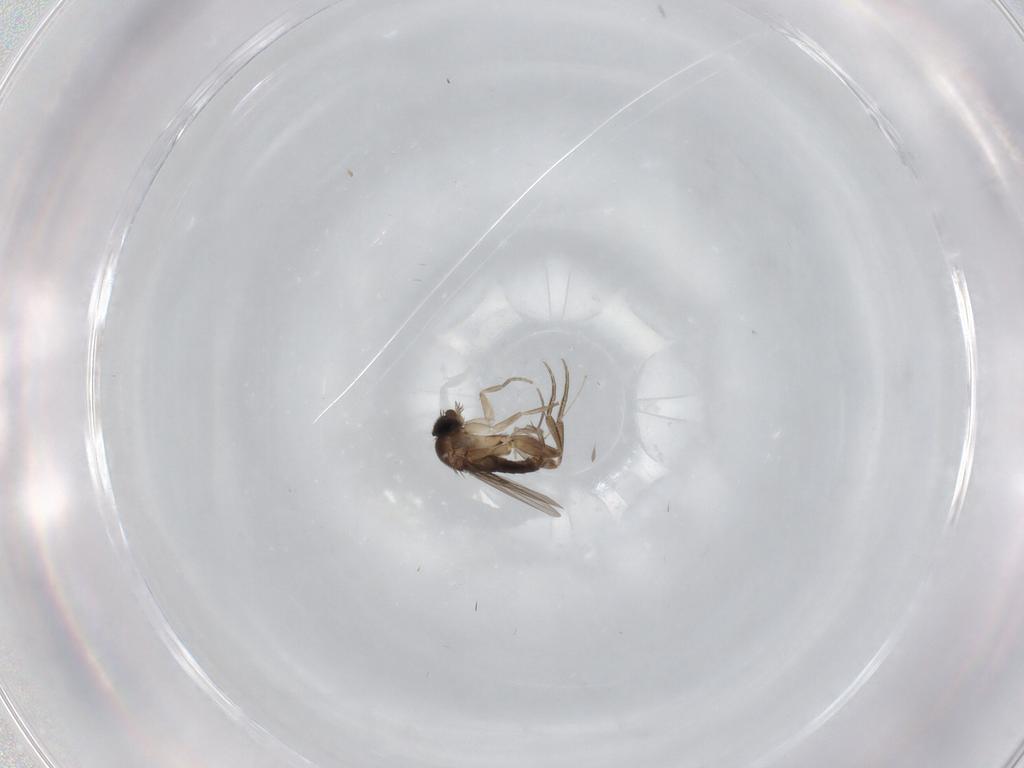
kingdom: Animalia
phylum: Arthropoda
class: Insecta
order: Diptera
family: Phoridae
